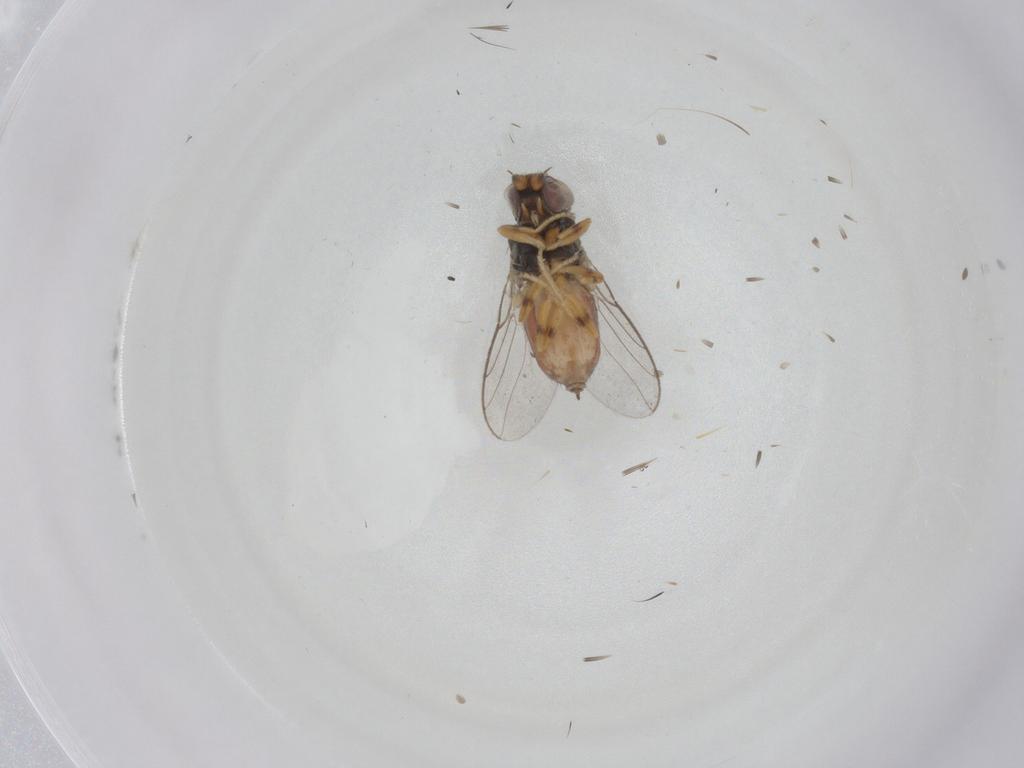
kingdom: Animalia
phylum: Arthropoda
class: Insecta
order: Diptera
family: Chloropidae
